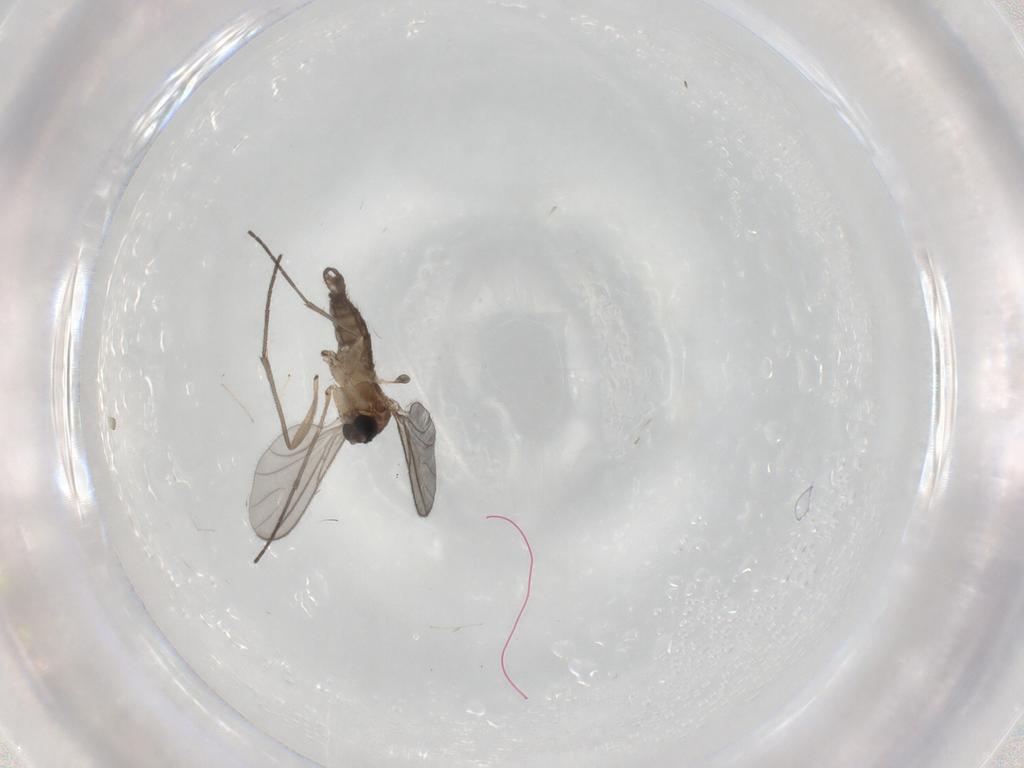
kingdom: Animalia
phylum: Arthropoda
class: Insecta
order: Diptera
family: Sciaridae
